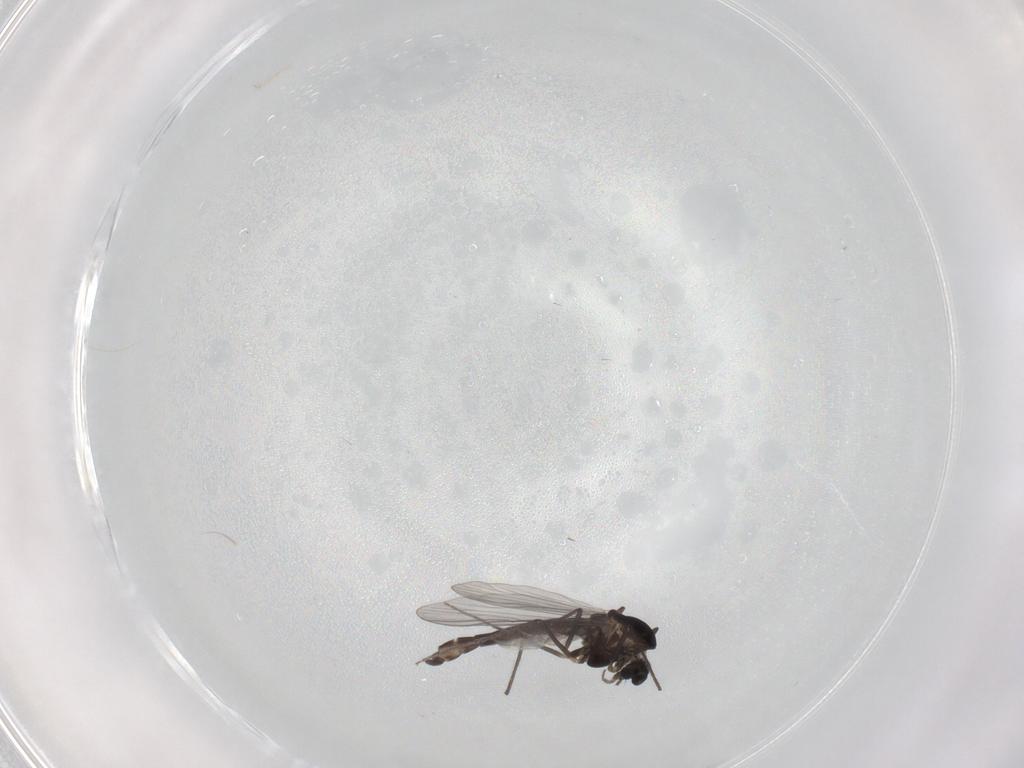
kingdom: Animalia
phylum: Arthropoda
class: Insecta
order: Diptera
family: Chironomidae
